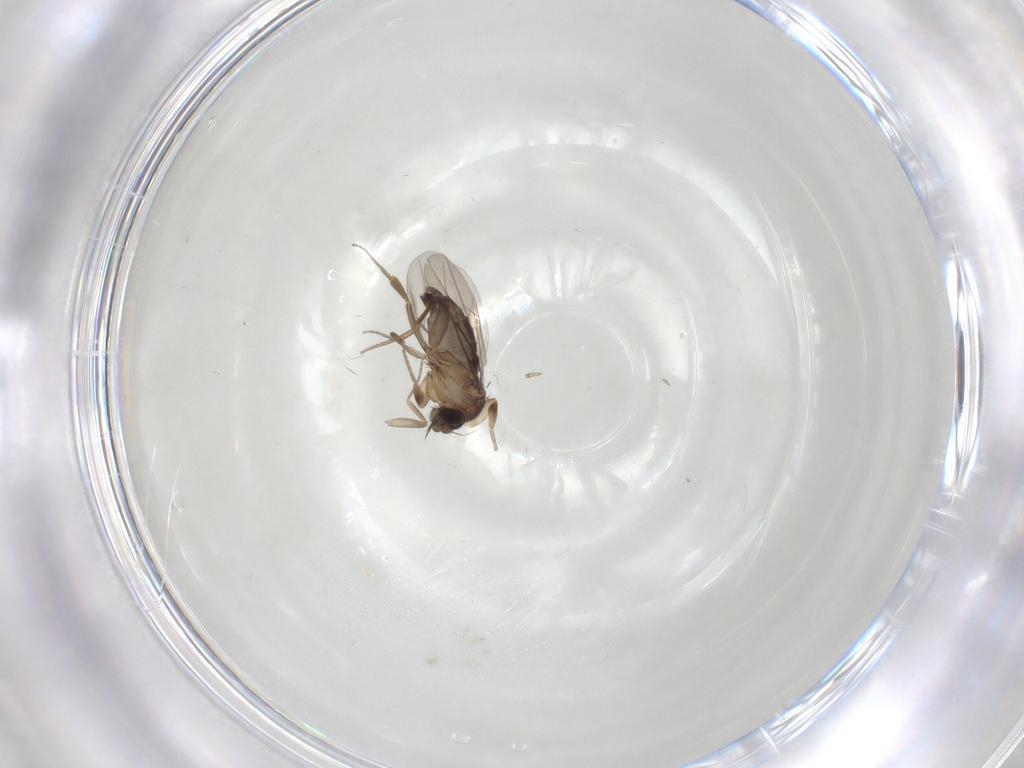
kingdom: Animalia
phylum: Arthropoda
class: Insecta
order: Diptera
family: Phoridae
